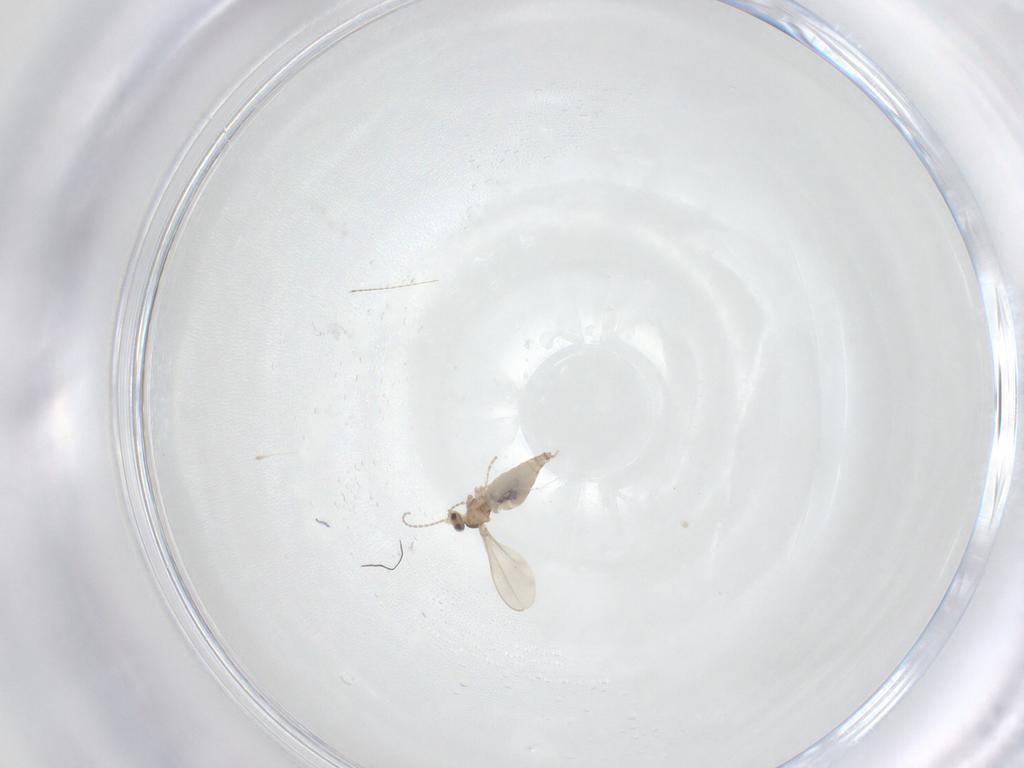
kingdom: Animalia
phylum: Arthropoda
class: Insecta
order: Diptera
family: Cecidomyiidae
